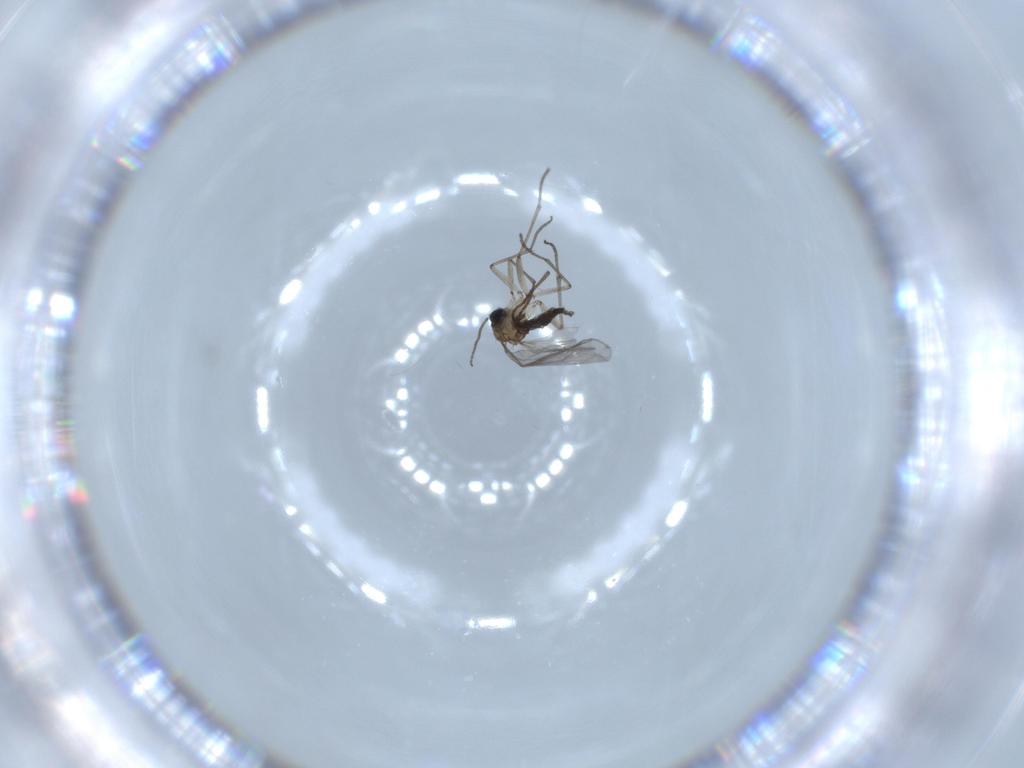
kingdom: Animalia
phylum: Arthropoda
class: Insecta
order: Diptera
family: Sciaridae
